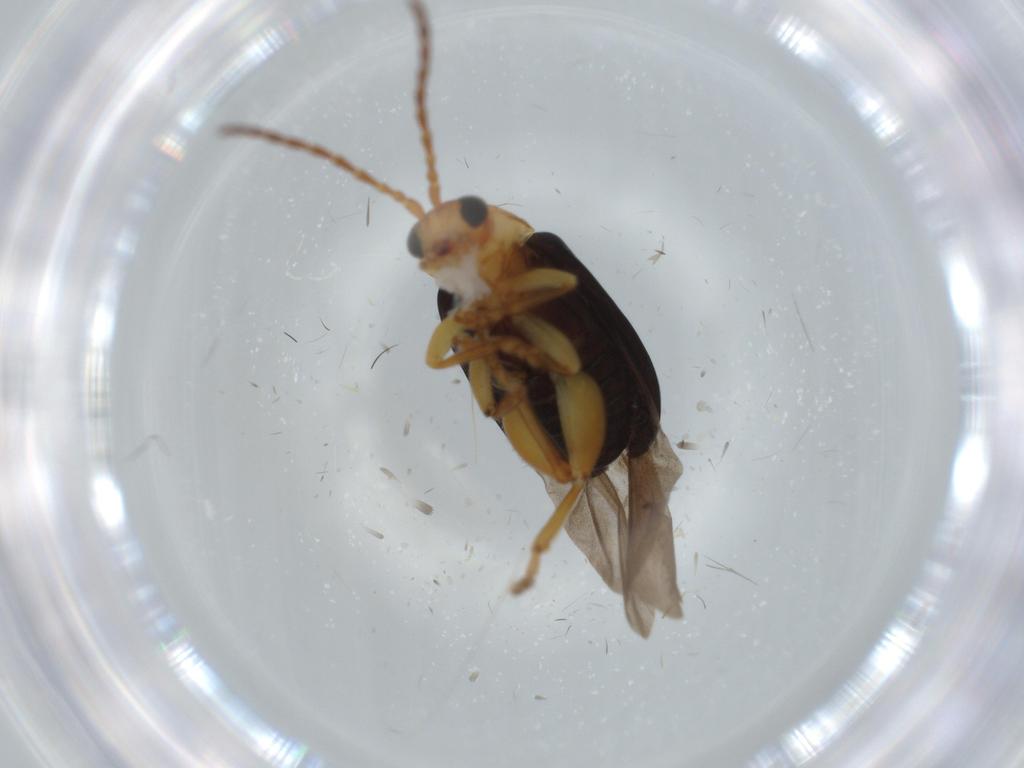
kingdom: Animalia
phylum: Arthropoda
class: Insecta
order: Coleoptera
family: Chrysomelidae
